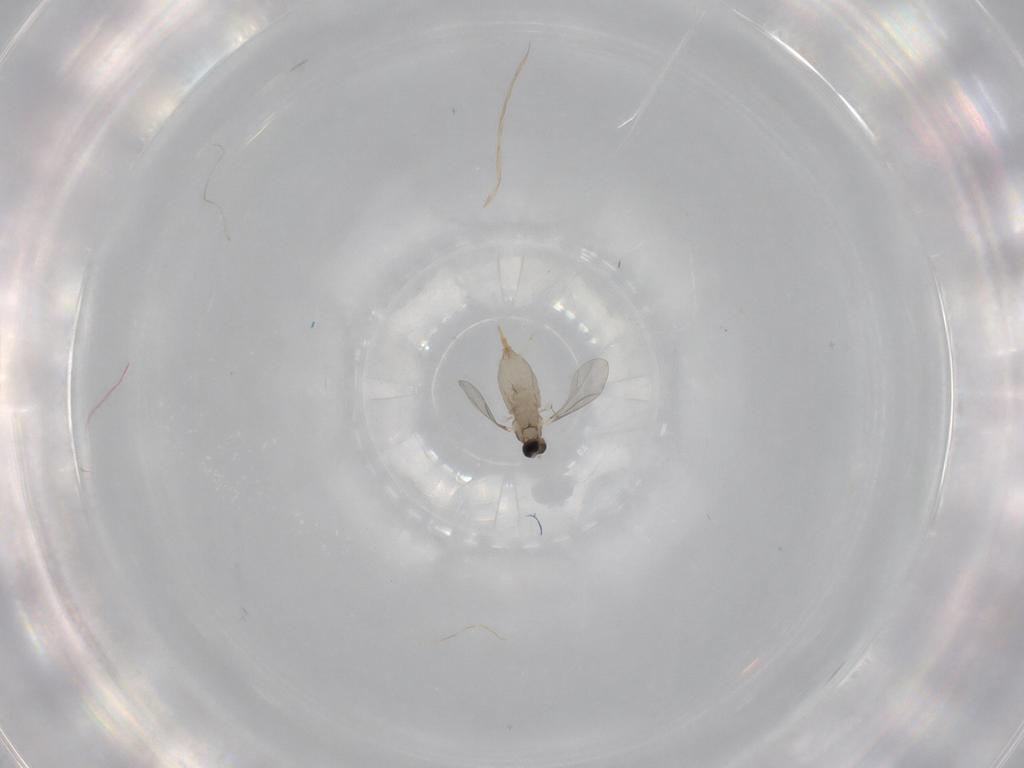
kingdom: Animalia
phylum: Arthropoda
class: Insecta
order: Diptera
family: Cecidomyiidae
